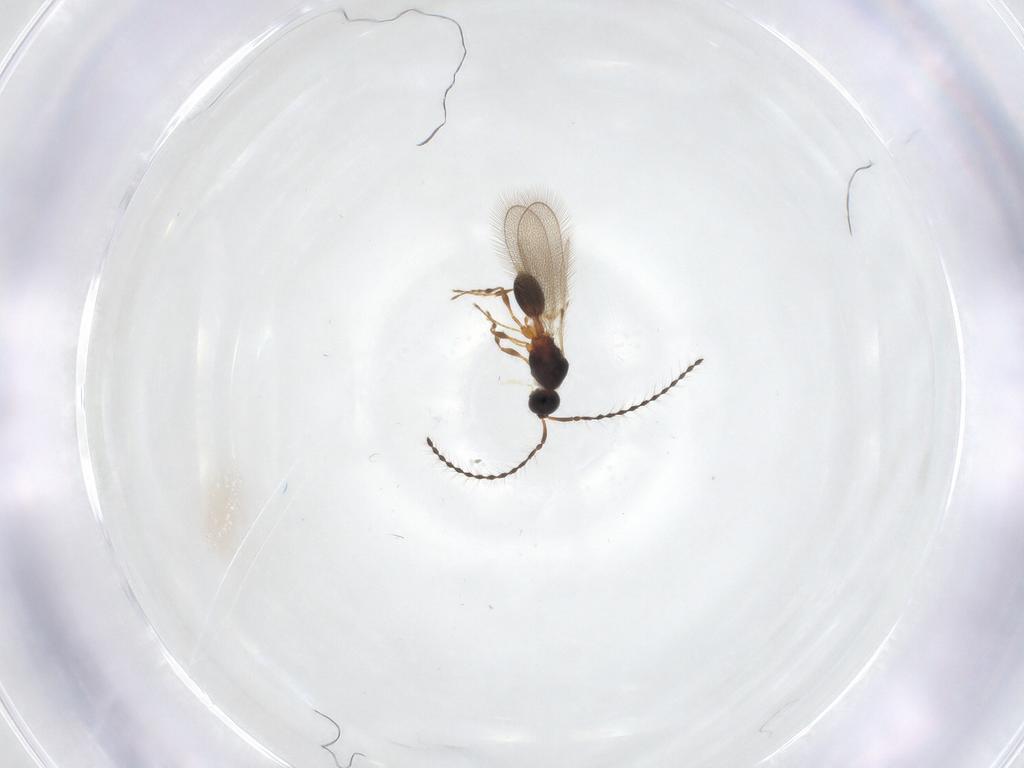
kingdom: Animalia
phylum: Arthropoda
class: Insecta
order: Hymenoptera
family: Diapriidae
